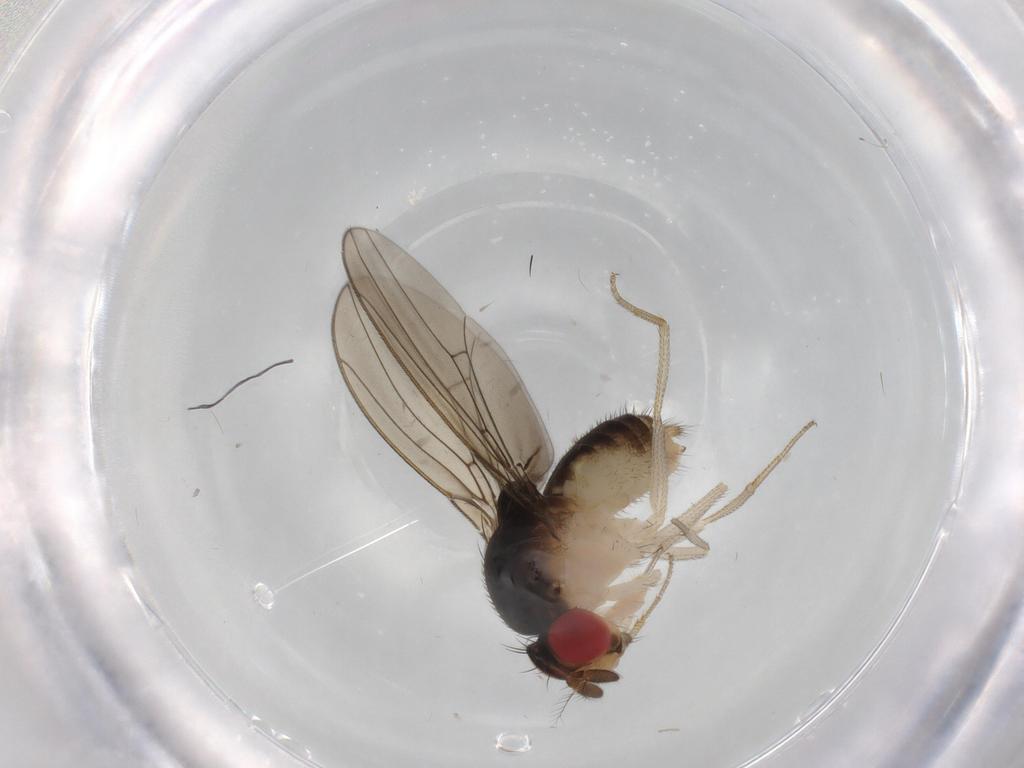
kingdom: Animalia
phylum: Arthropoda
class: Insecta
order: Diptera
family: Drosophilidae
